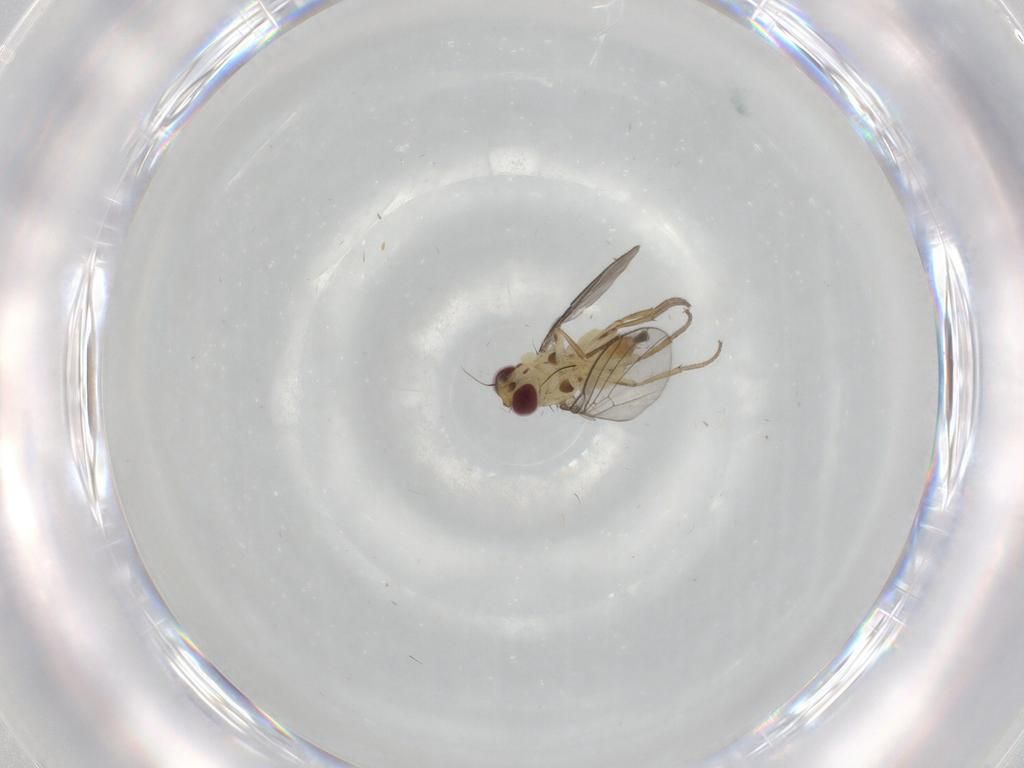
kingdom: Animalia
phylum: Arthropoda
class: Insecta
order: Diptera
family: Agromyzidae
